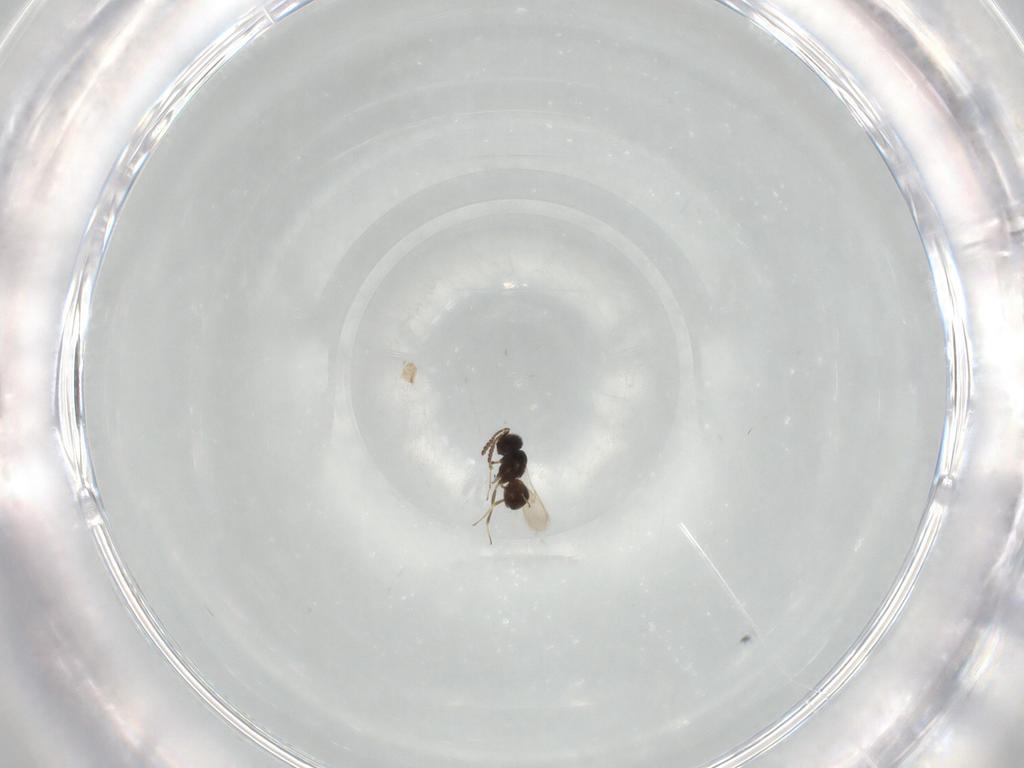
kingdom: Animalia
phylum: Arthropoda
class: Insecta
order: Hymenoptera
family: Scelionidae
